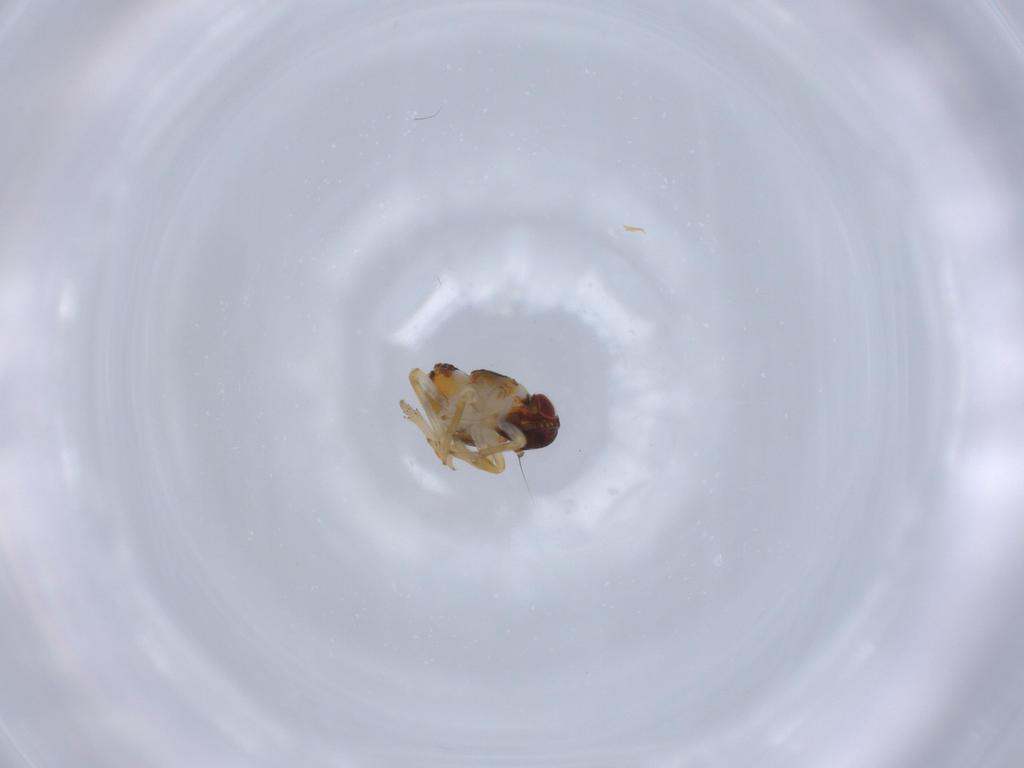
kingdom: Animalia
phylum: Arthropoda
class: Insecta
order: Hemiptera
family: Issidae
